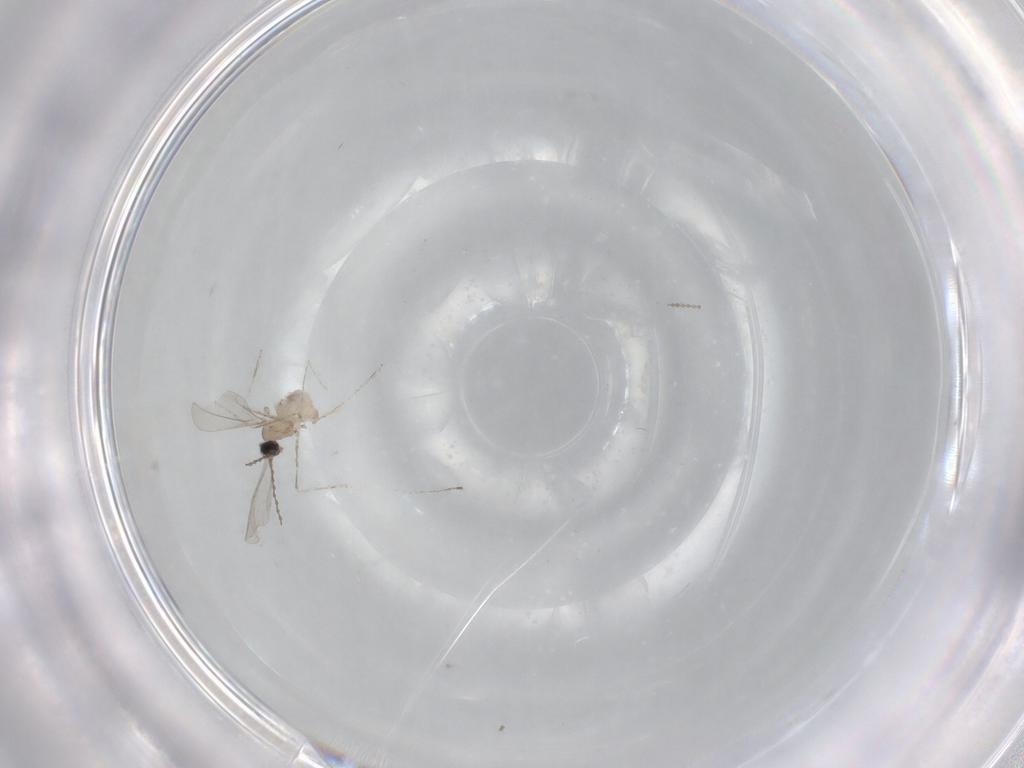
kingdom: Animalia
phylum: Arthropoda
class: Insecta
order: Diptera
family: Cecidomyiidae
